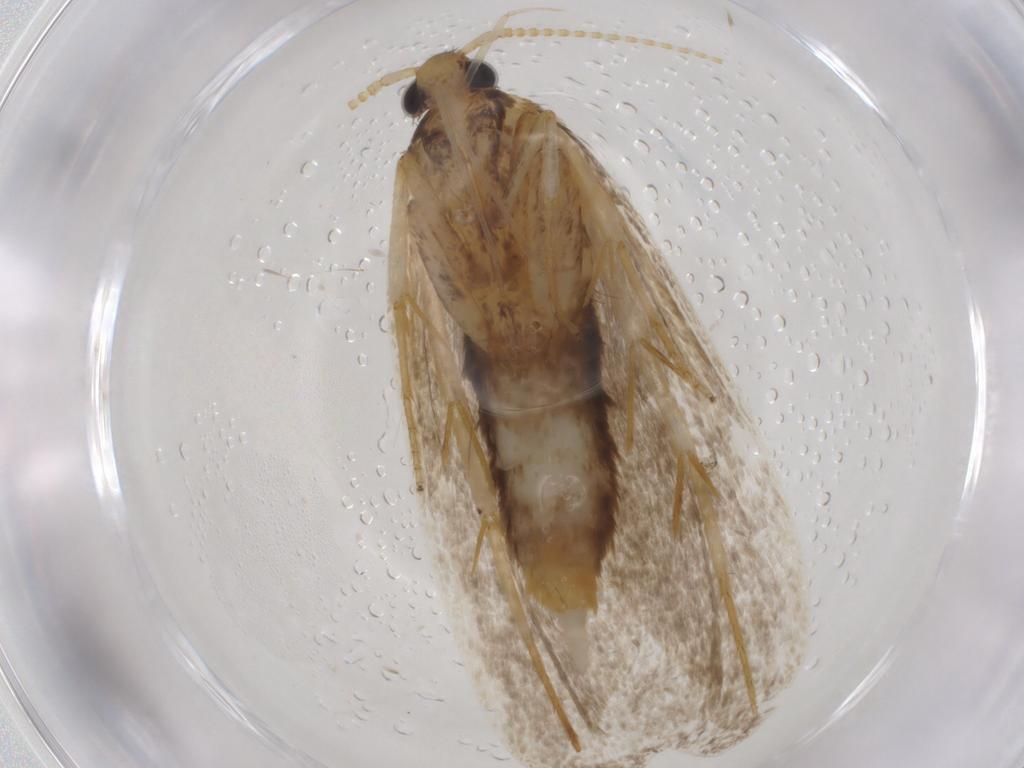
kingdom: Animalia
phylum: Arthropoda
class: Insecta
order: Lepidoptera
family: Lecithoceridae
